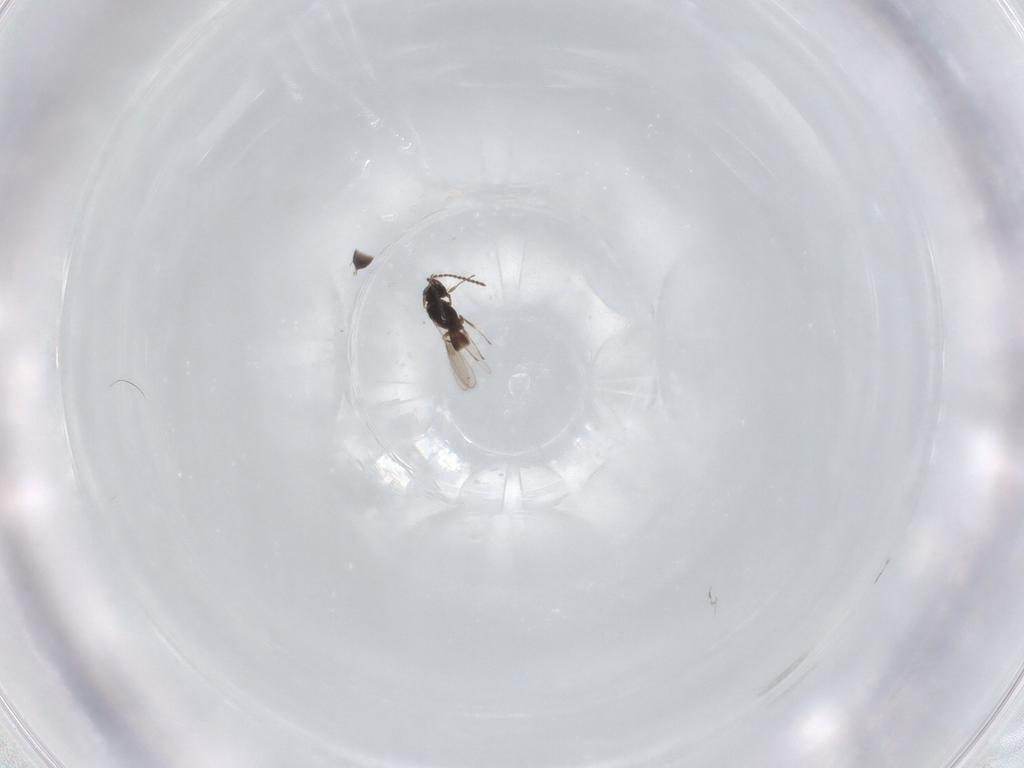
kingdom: Animalia
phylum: Arthropoda
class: Insecta
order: Hymenoptera
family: Scelionidae
